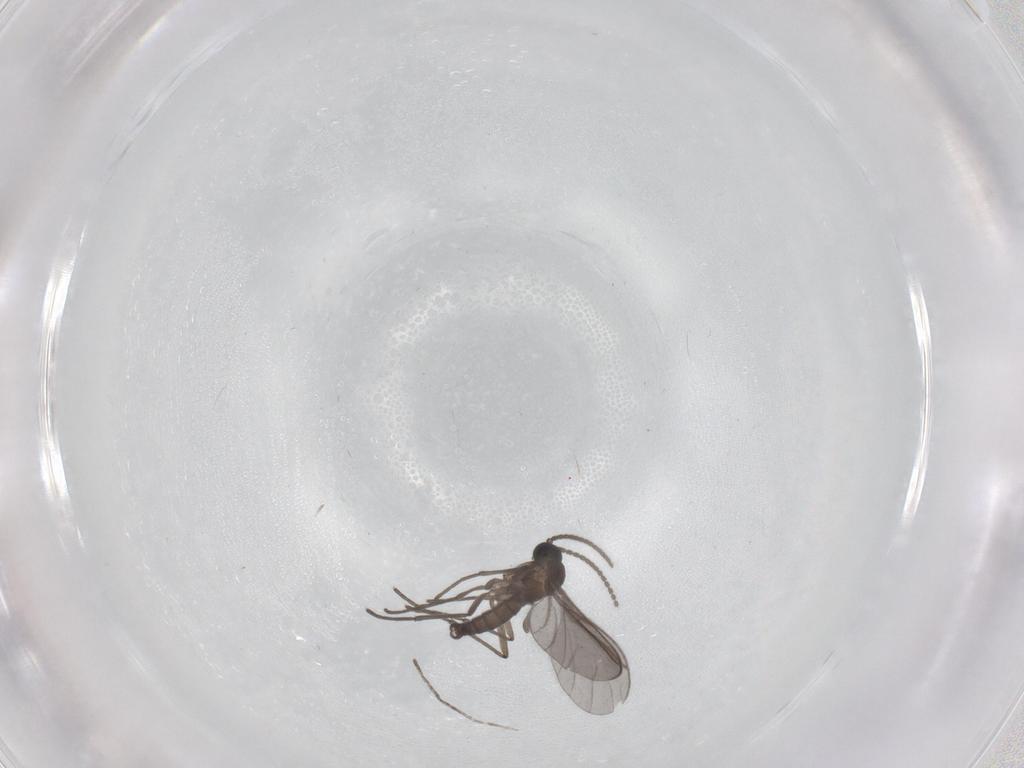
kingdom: Animalia
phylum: Arthropoda
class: Insecta
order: Diptera
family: Sciaridae
